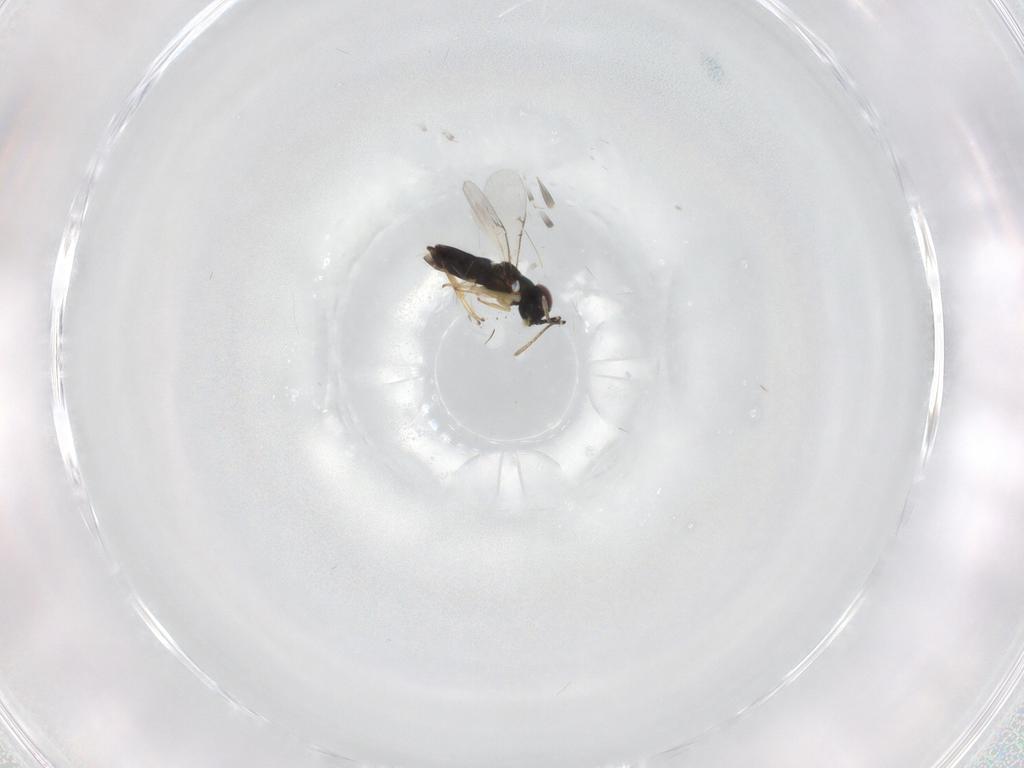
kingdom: Animalia
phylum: Arthropoda
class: Insecta
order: Hymenoptera
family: Encyrtidae
